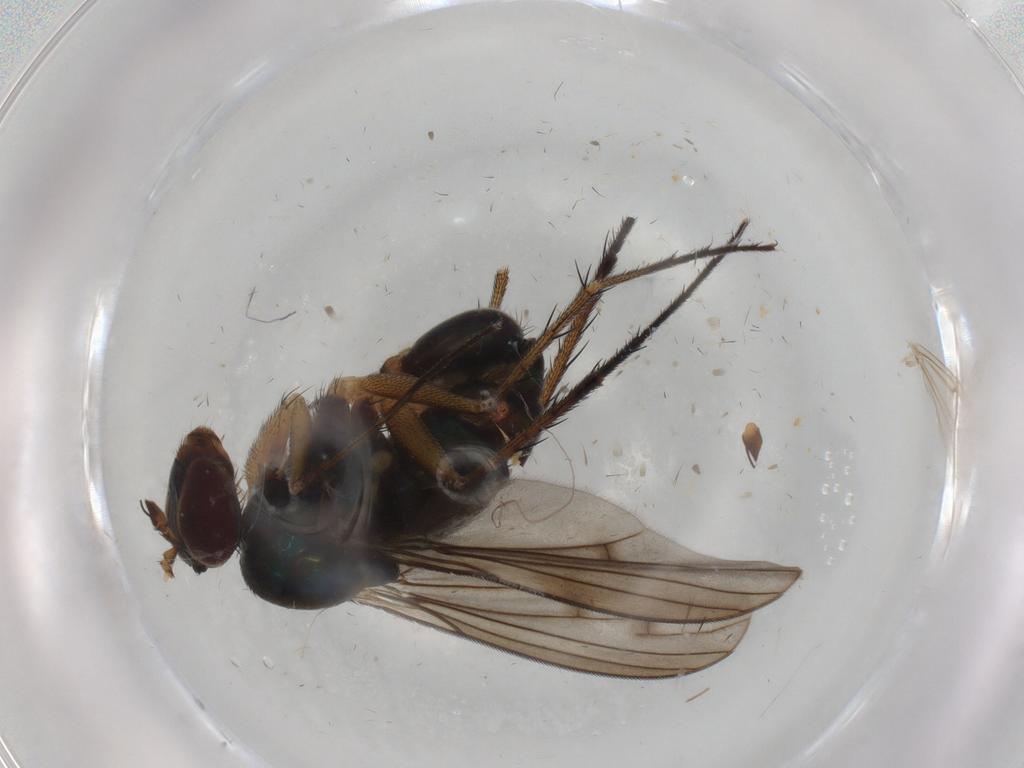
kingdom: Animalia
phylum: Arthropoda
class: Insecta
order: Diptera
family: Dolichopodidae
